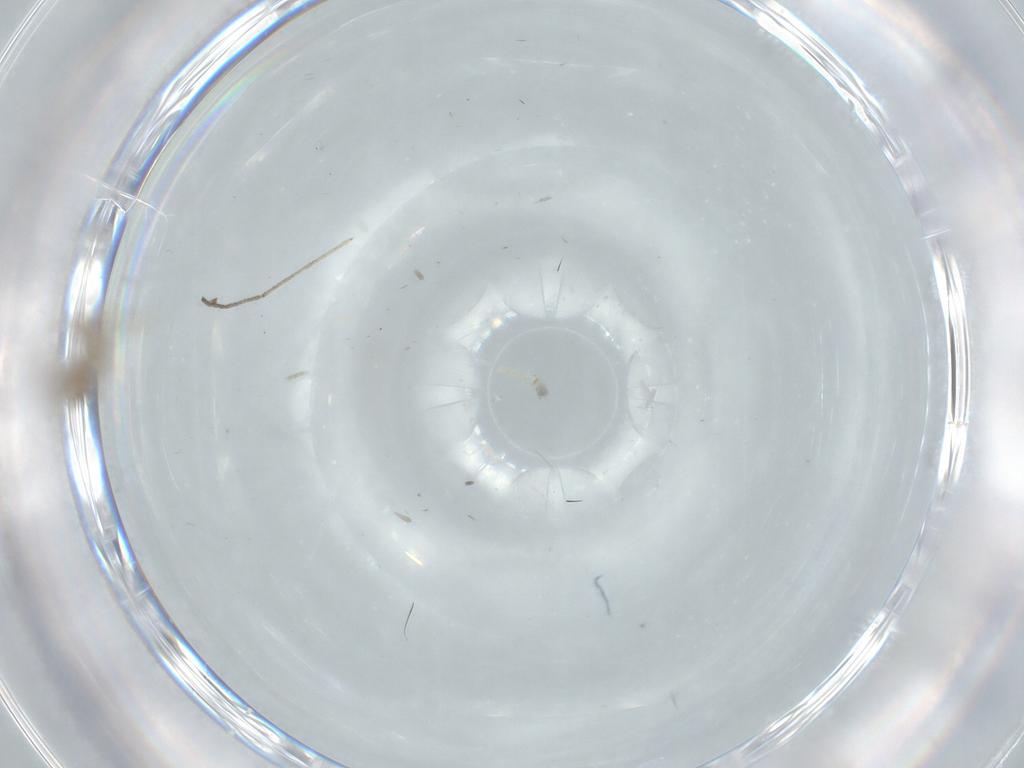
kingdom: Animalia
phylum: Arthropoda
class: Insecta
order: Diptera
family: Cecidomyiidae
